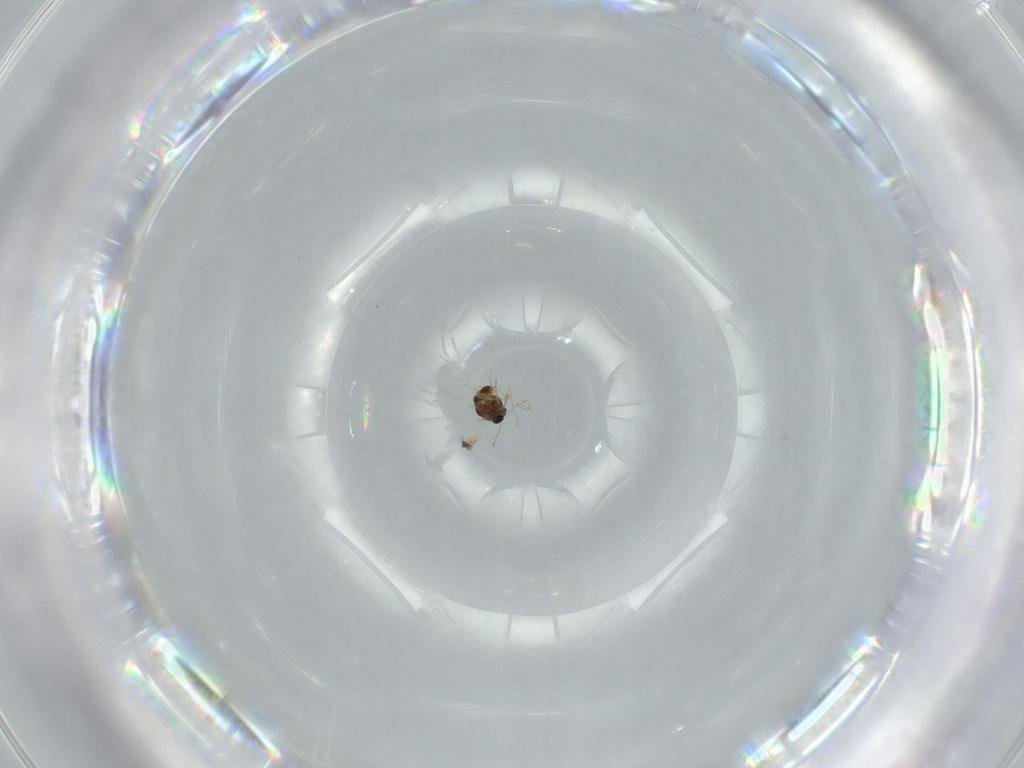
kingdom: Animalia
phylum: Arthropoda
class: Insecta
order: Diptera
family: Chironomidae
